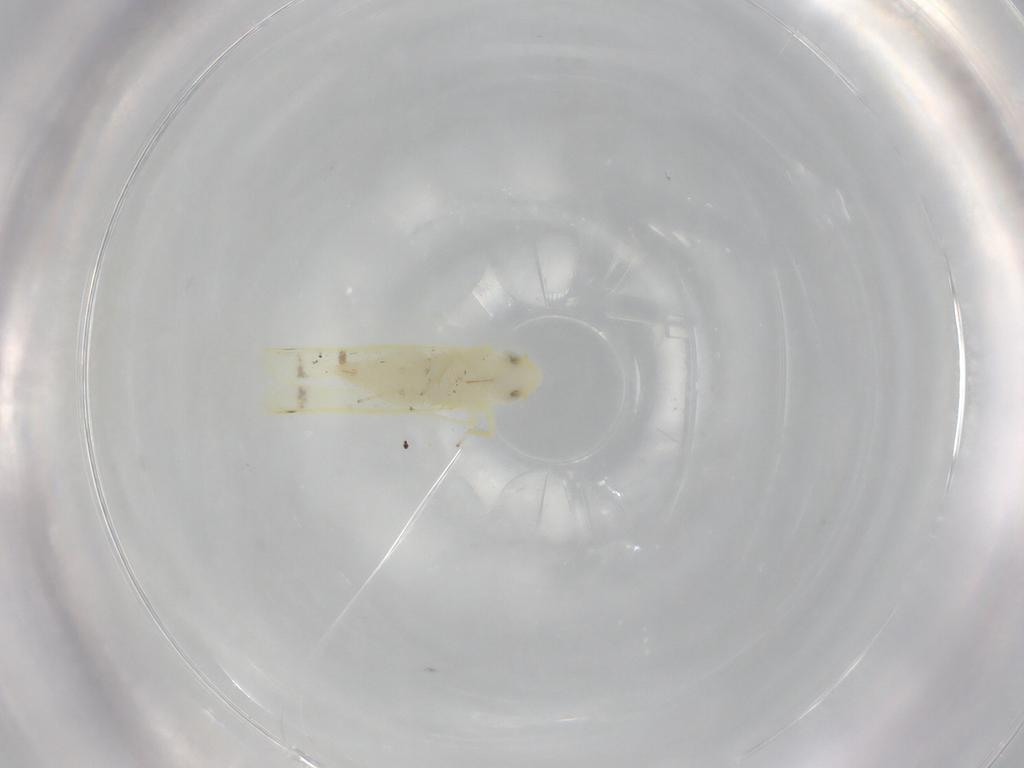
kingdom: Animalia
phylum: Arthropoda
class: Insecta
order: Hemiptera
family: Cicadellidae
